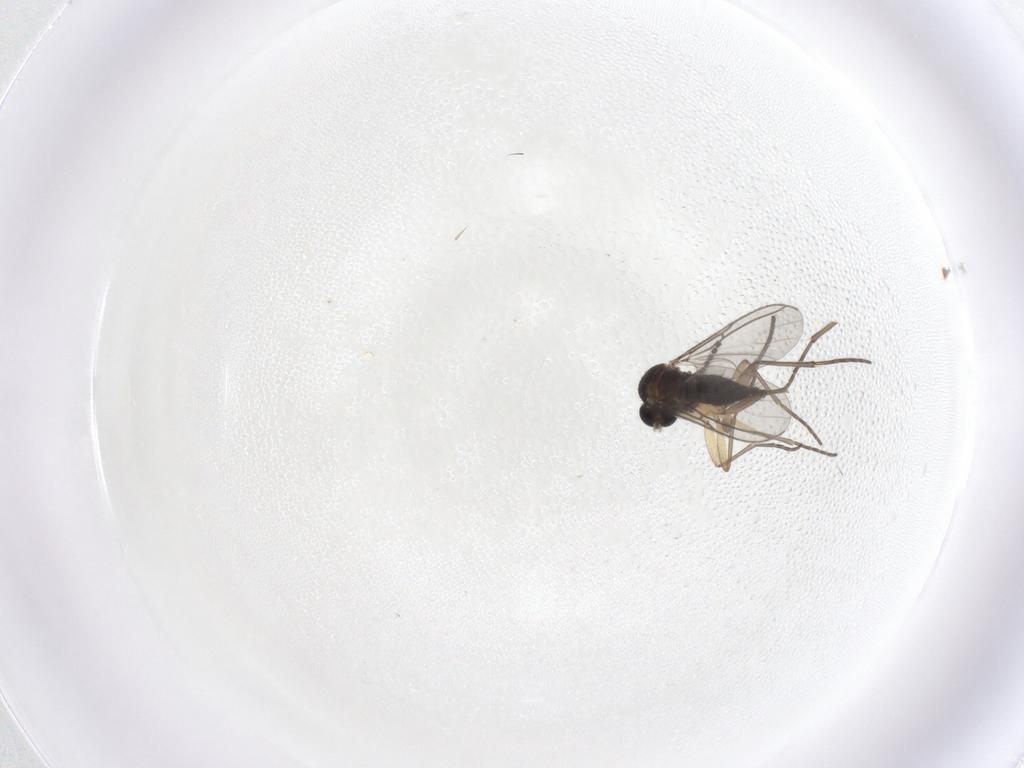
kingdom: Animalia
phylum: Arthropoda
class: Insecta
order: Diptera
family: Sciaridae
